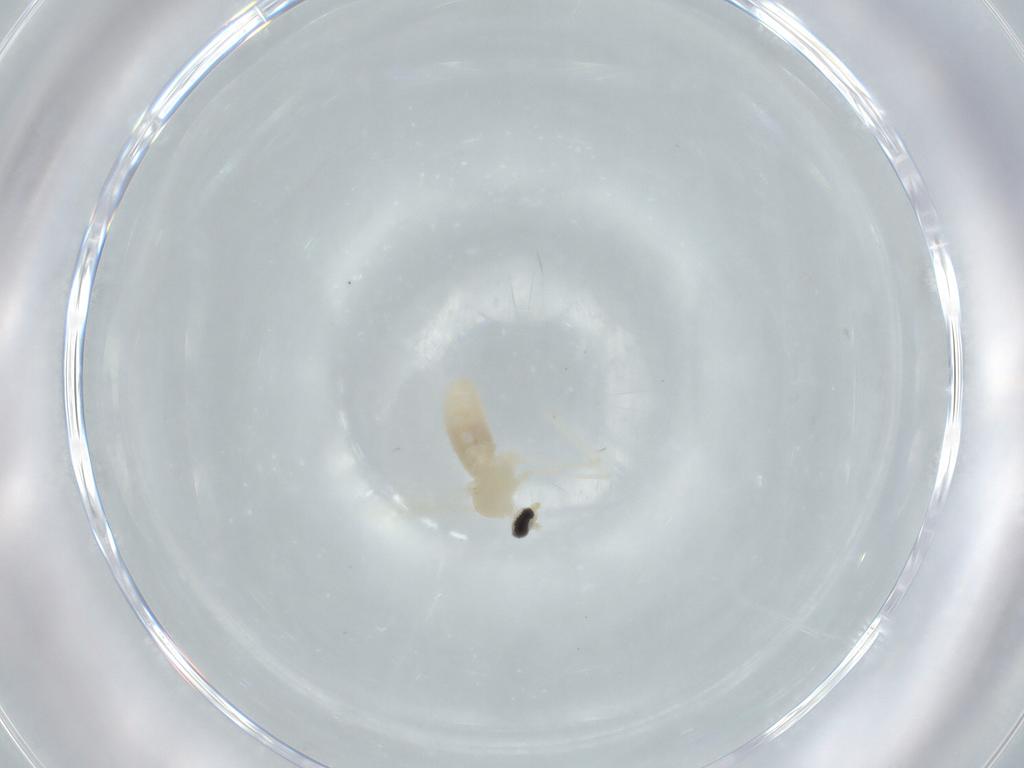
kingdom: Animalia
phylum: Arthropoda
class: Insecta
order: Diptera
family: Cecidomyiidae
